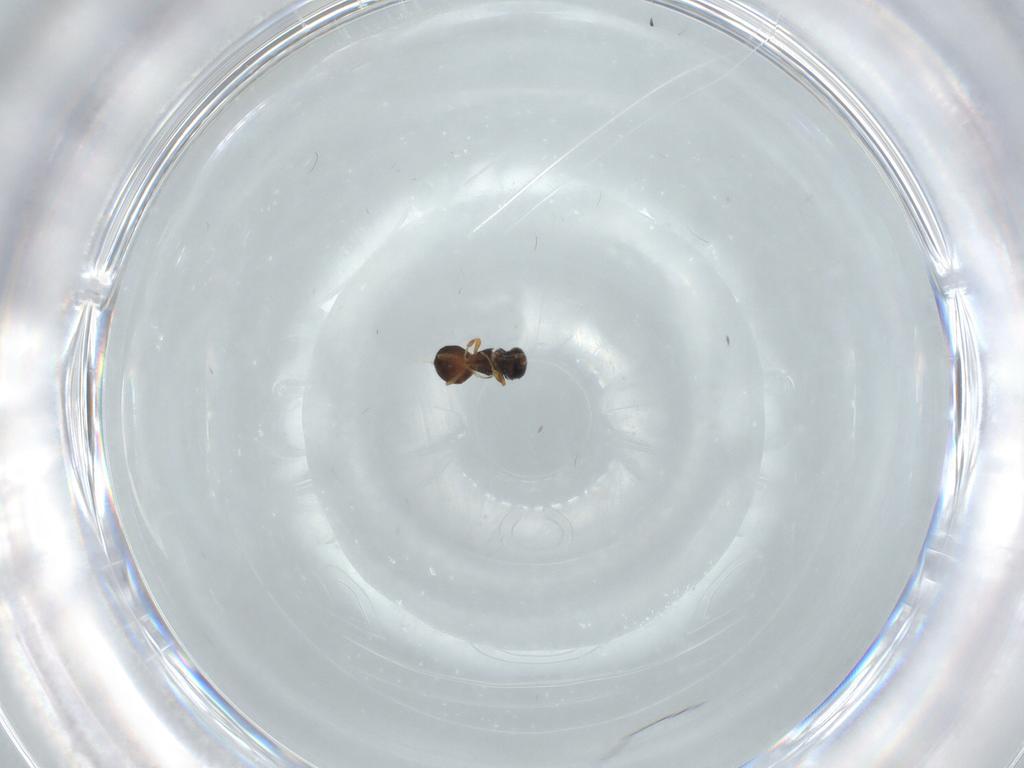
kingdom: Animalia
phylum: Arthropoda
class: Insecta
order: Hymenoptera
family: Scelionidae
